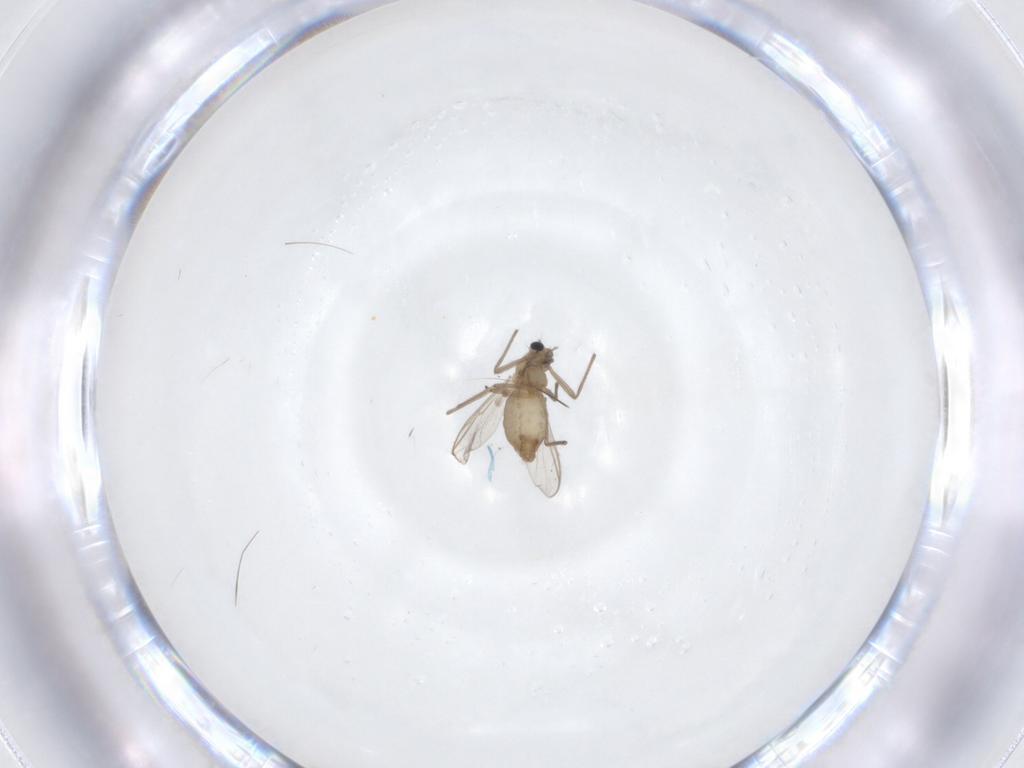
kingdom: Animalia
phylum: Arthropoda
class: Insecta
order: Diptera
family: Chironomidae
